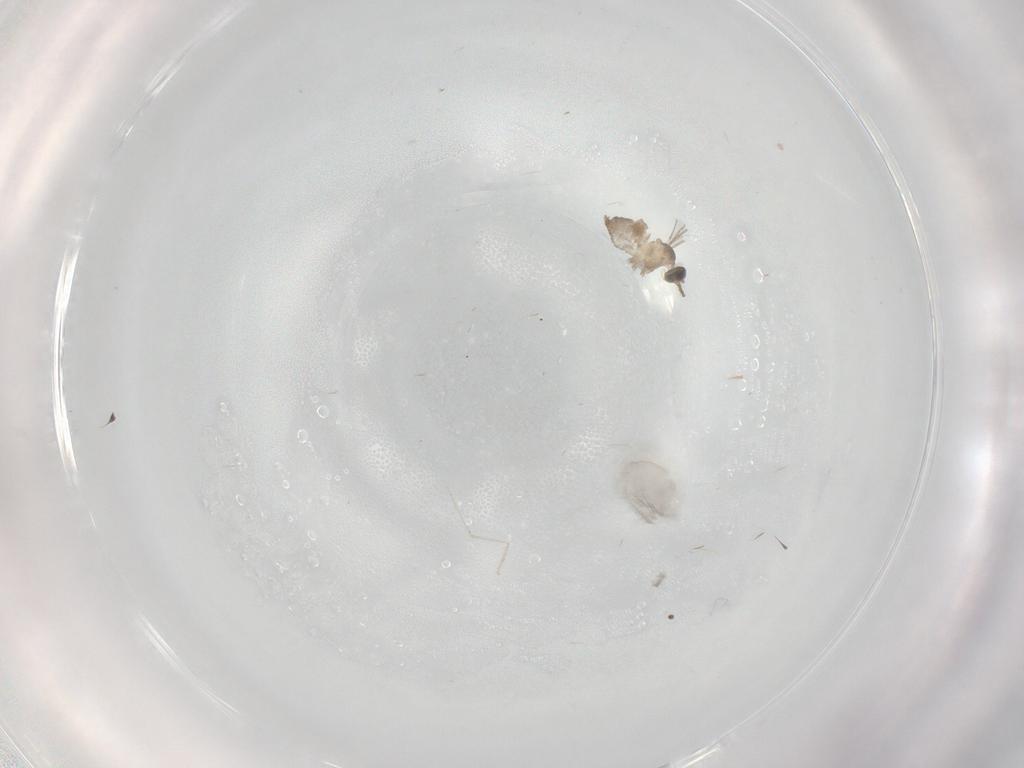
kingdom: Animalia
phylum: Arthropoda
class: Insecta
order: Diptera
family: Cecidomyiidae
